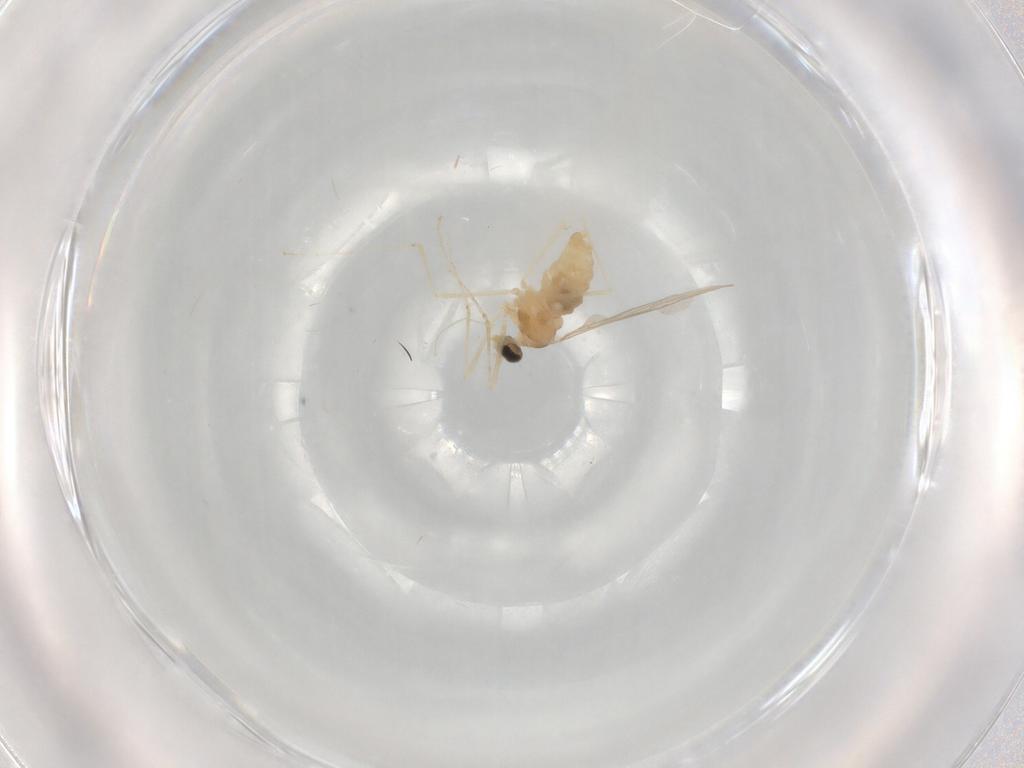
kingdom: Animalia
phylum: Arthropoda
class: Insecta
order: Diptera
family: Cecidomyiidae
